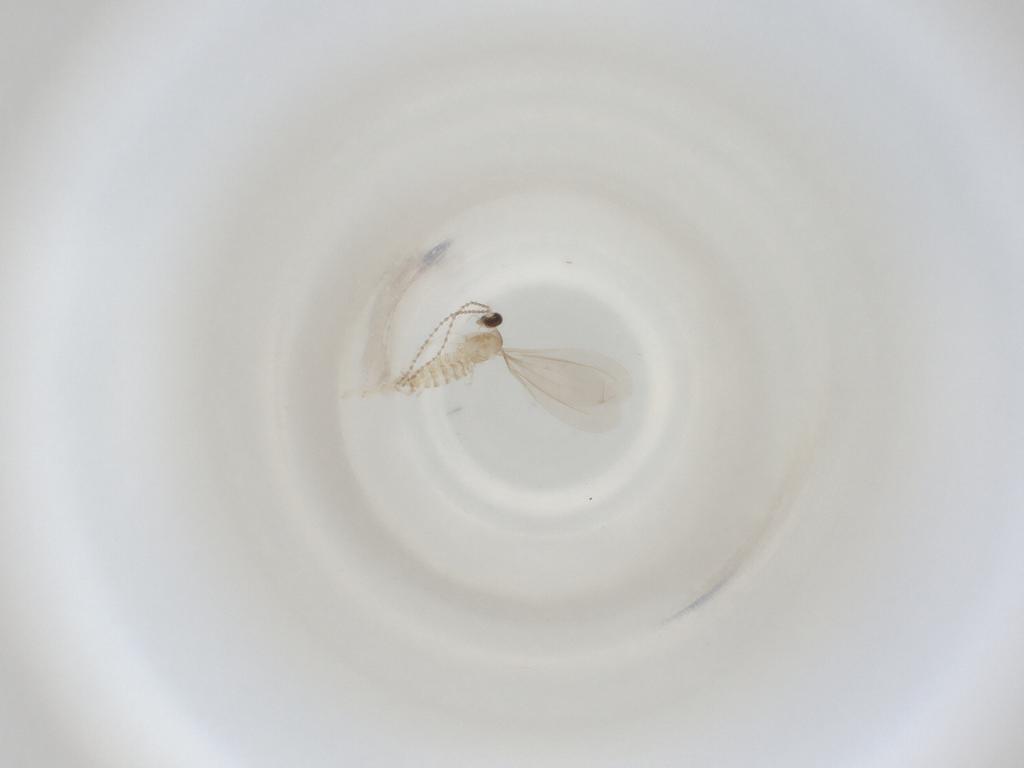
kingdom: Animalia
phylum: Arthropoda
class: Insecta
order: Diptera
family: Cecidomyiidae
